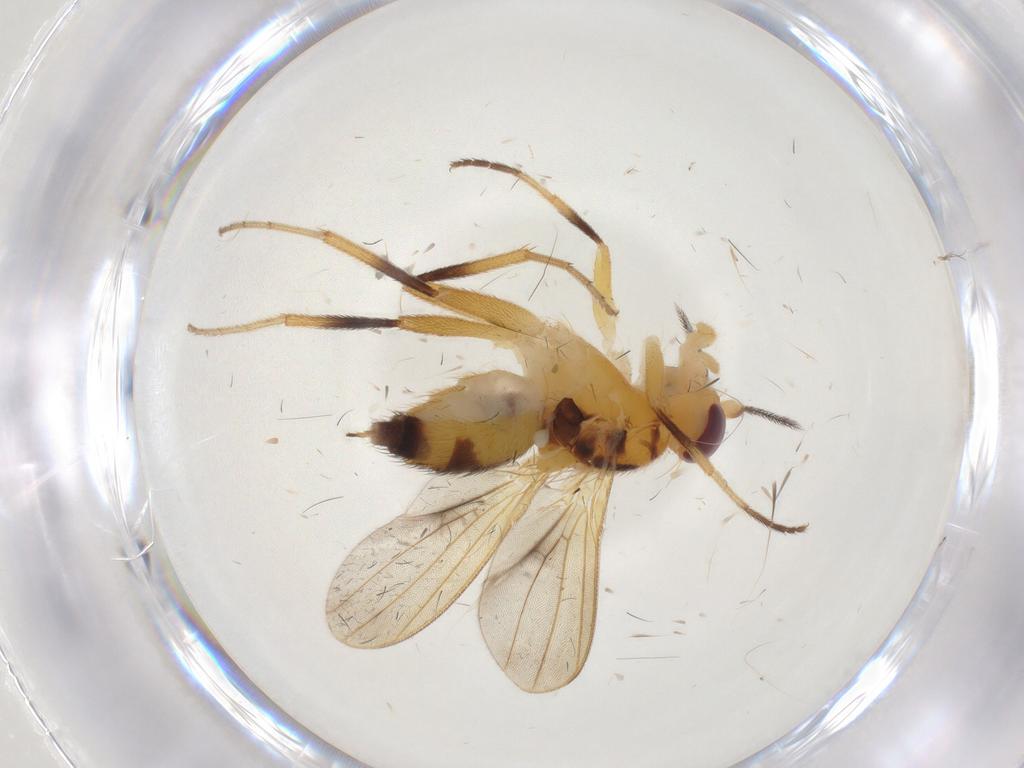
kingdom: Animalia
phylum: Arthropoda
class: Insecta
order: Diptera
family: Clusiidae
